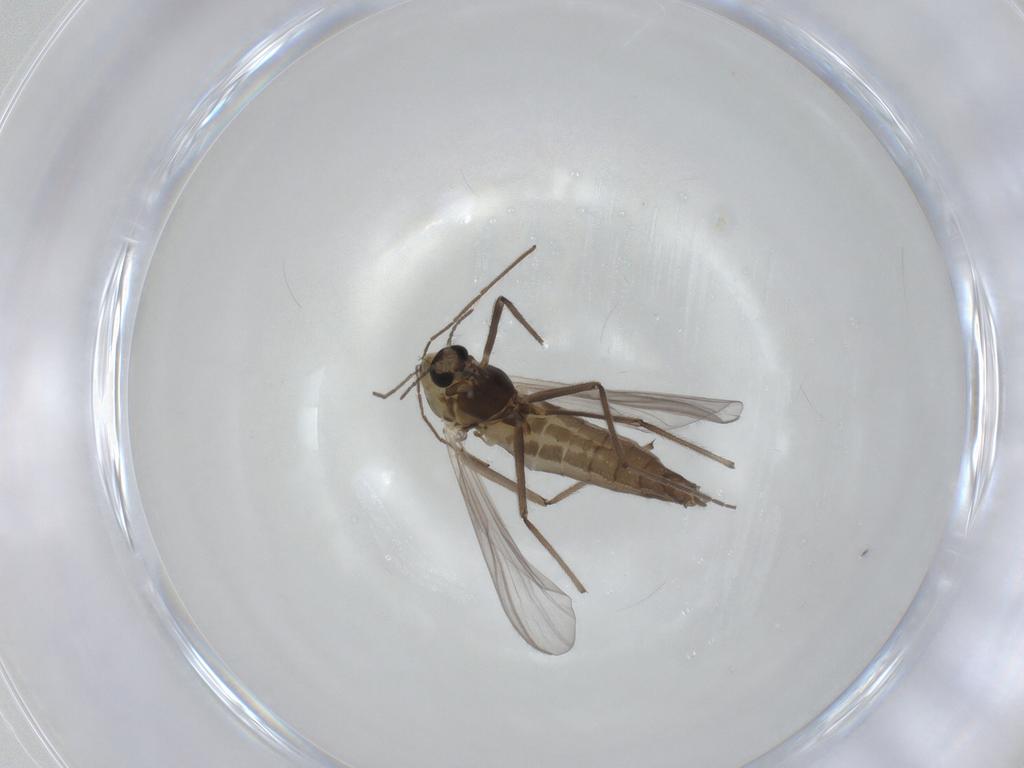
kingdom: Animalia
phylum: Arthropoda
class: Insecta
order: Diptera
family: Chironomidae
